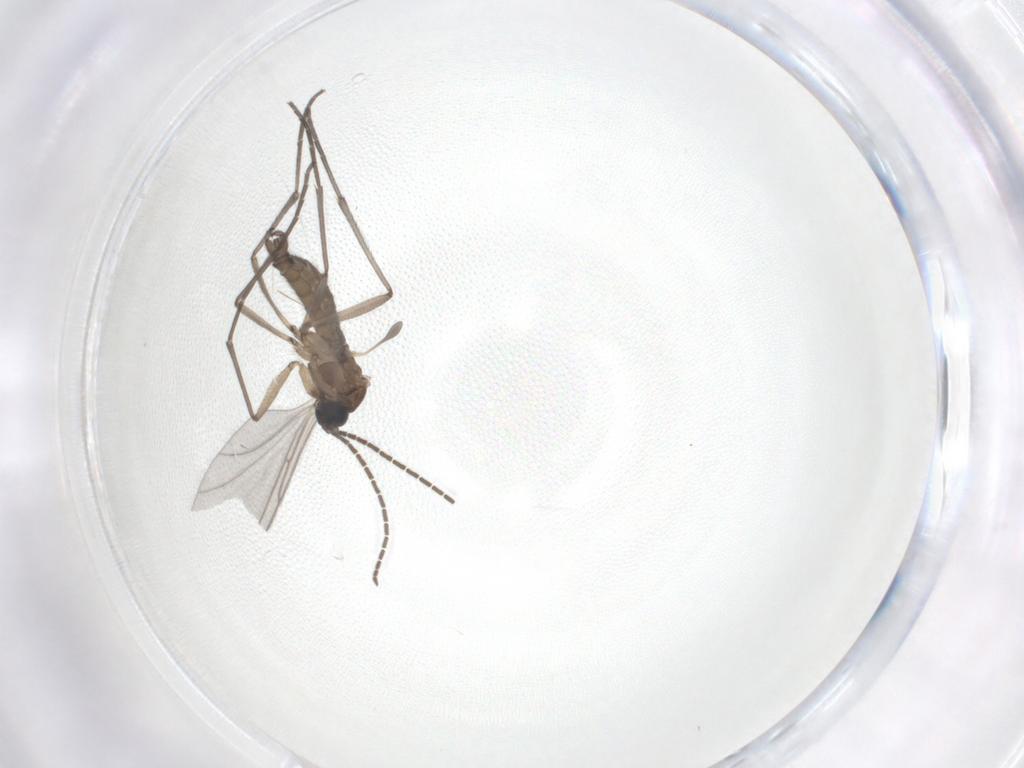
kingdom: Animalia
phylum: Arthropoda
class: Insecta
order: Diptera
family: Sciaridae
